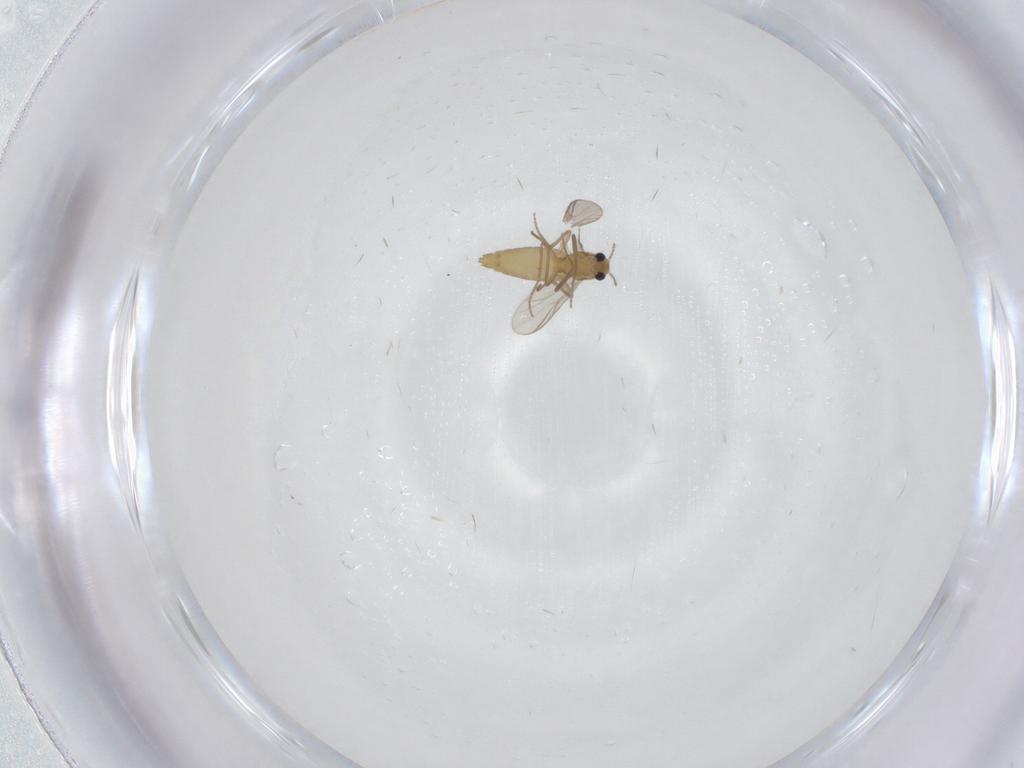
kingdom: Animalia
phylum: Arthropoda
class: Insecta
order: Diptera
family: Chironomidae
